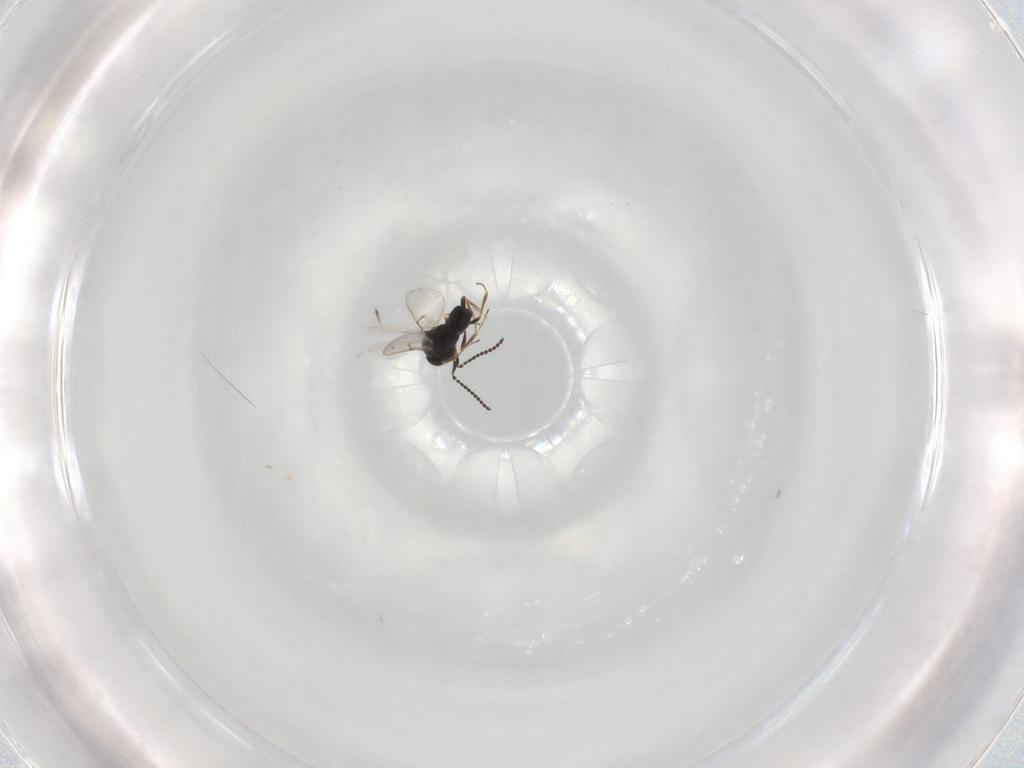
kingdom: Animalia
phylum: Arthropoda
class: Insecta
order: Hymenoptera
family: Scelionidae
